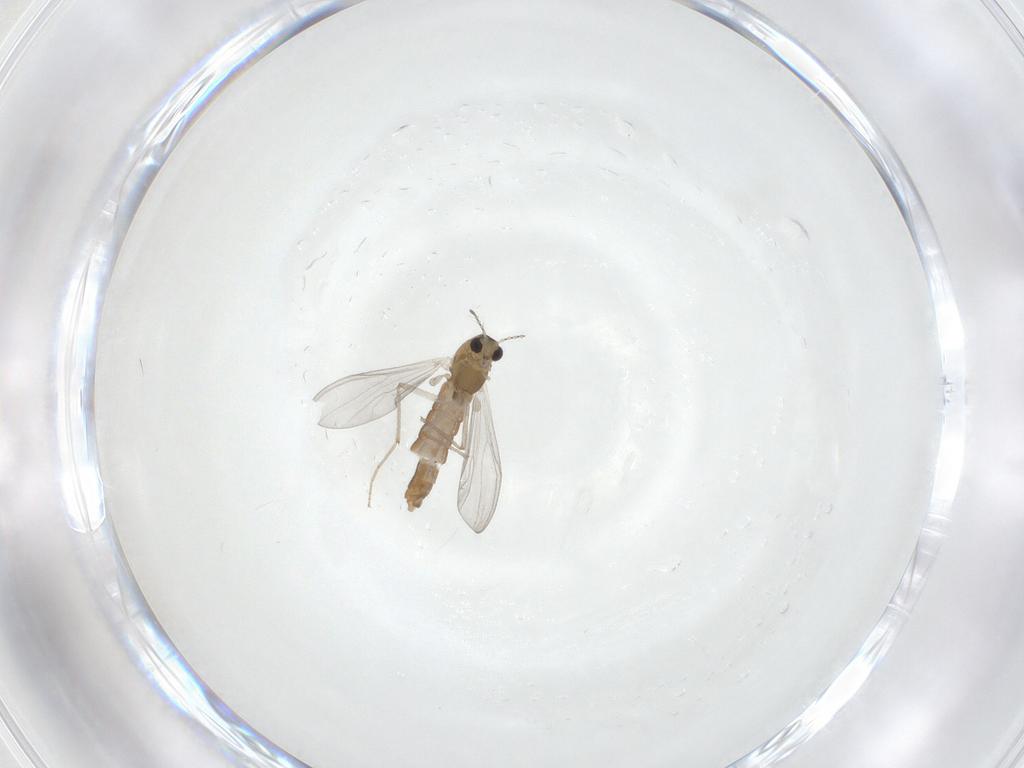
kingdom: Animalia
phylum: Arthropoda
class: Insecta
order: Diptera
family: Chironomidae
